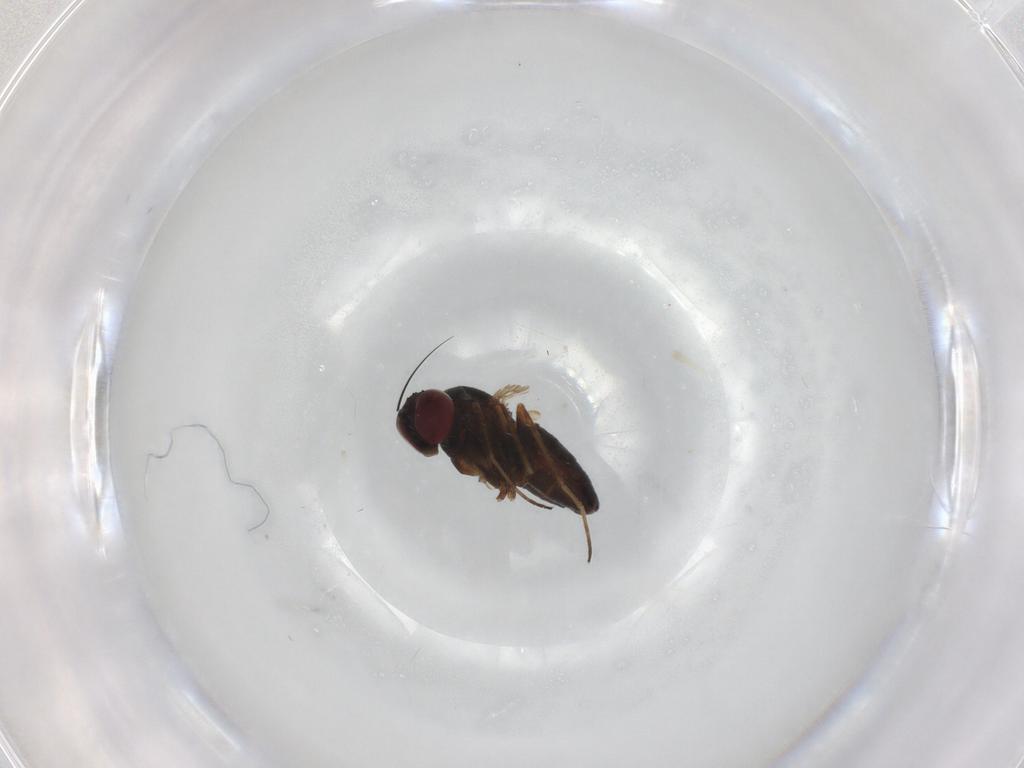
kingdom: Animalia
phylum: Arthropoda
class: Insecta
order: Diptera
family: Dolichopodidae
